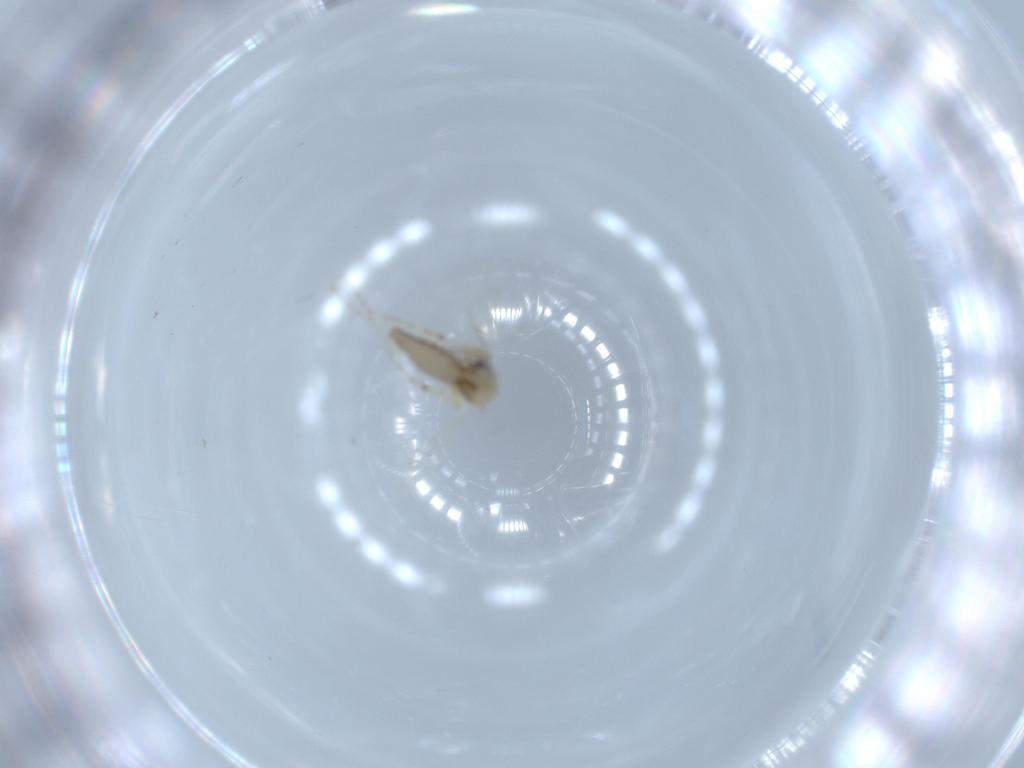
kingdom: Animalia
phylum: Arthropoda
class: Insecta
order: Diptera
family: Ceratopogonidae
